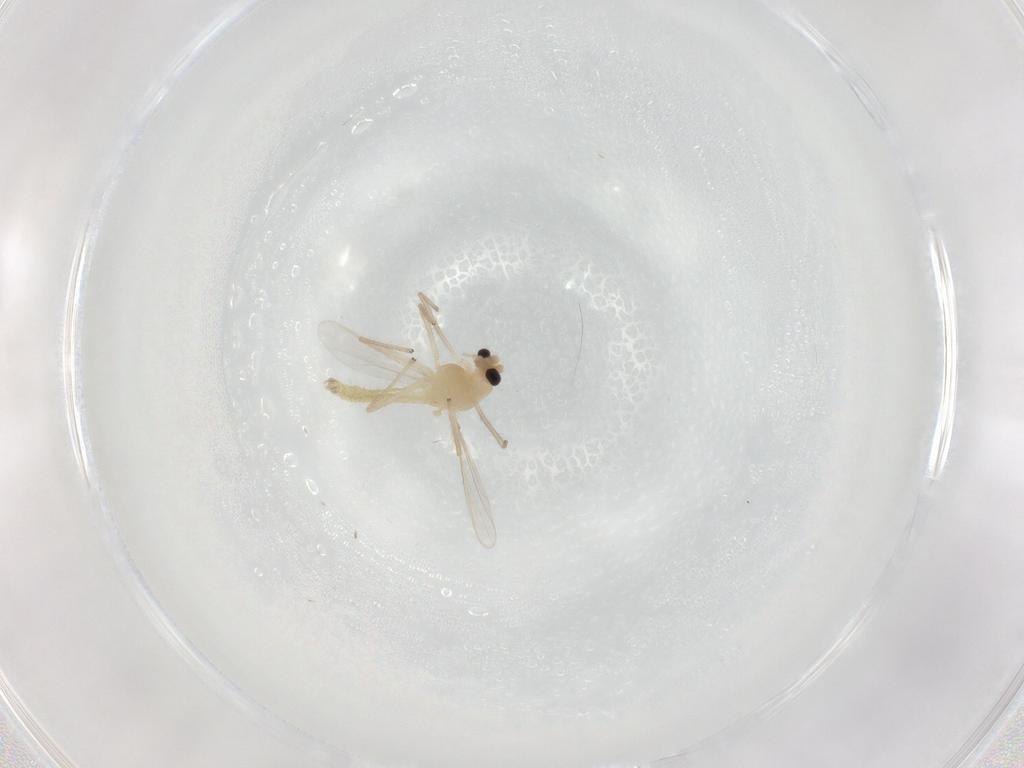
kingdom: Animalia
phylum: Arthropoda
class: Insecta
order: Diptera
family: Chironomidae
